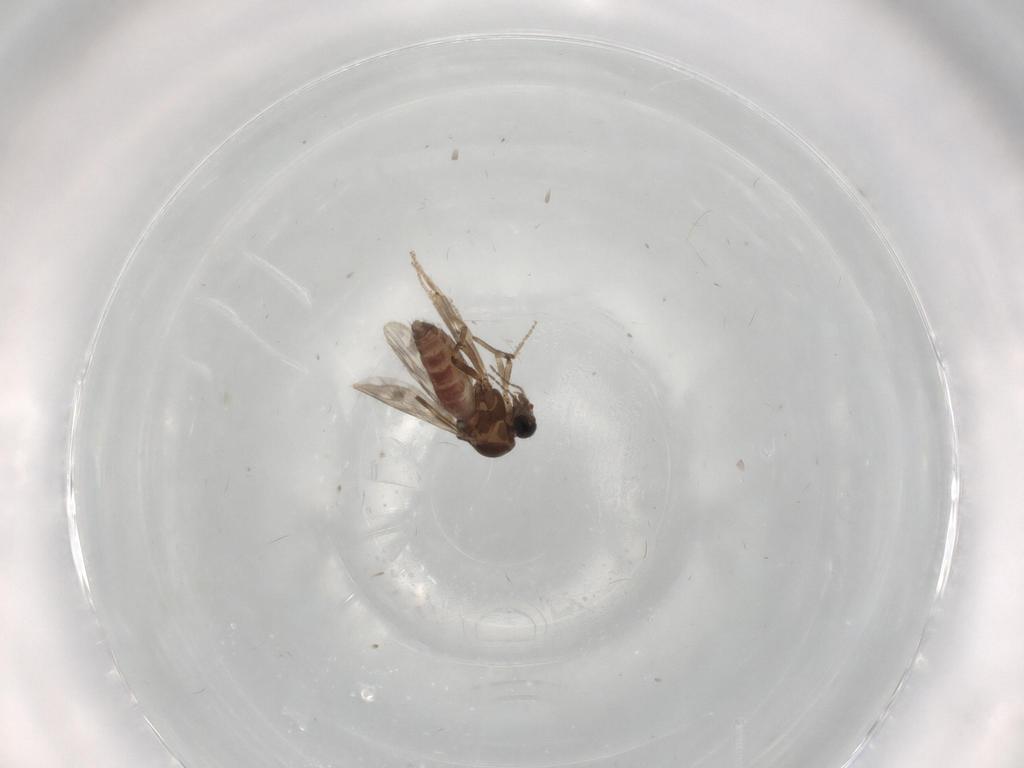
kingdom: Animalia
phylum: Arthropoda
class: Insecta
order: Diptera
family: Ceratopogonidae
